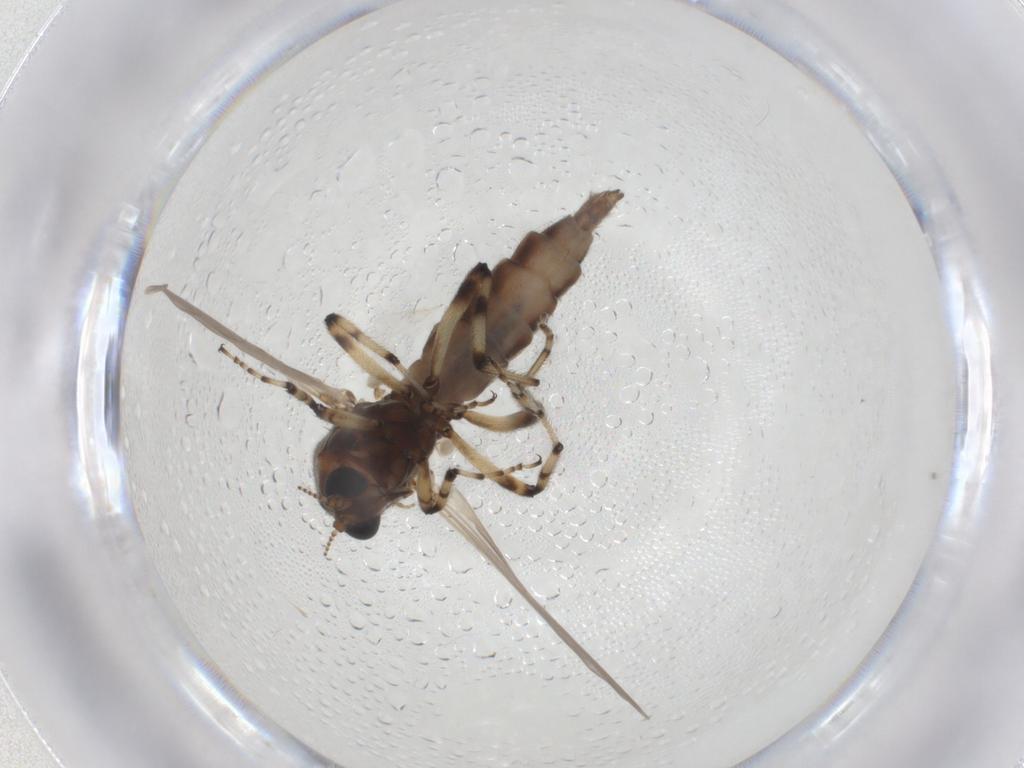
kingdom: Animalia
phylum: Arthropoda
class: Insecta
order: Diptera
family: Ceratopogonidae
